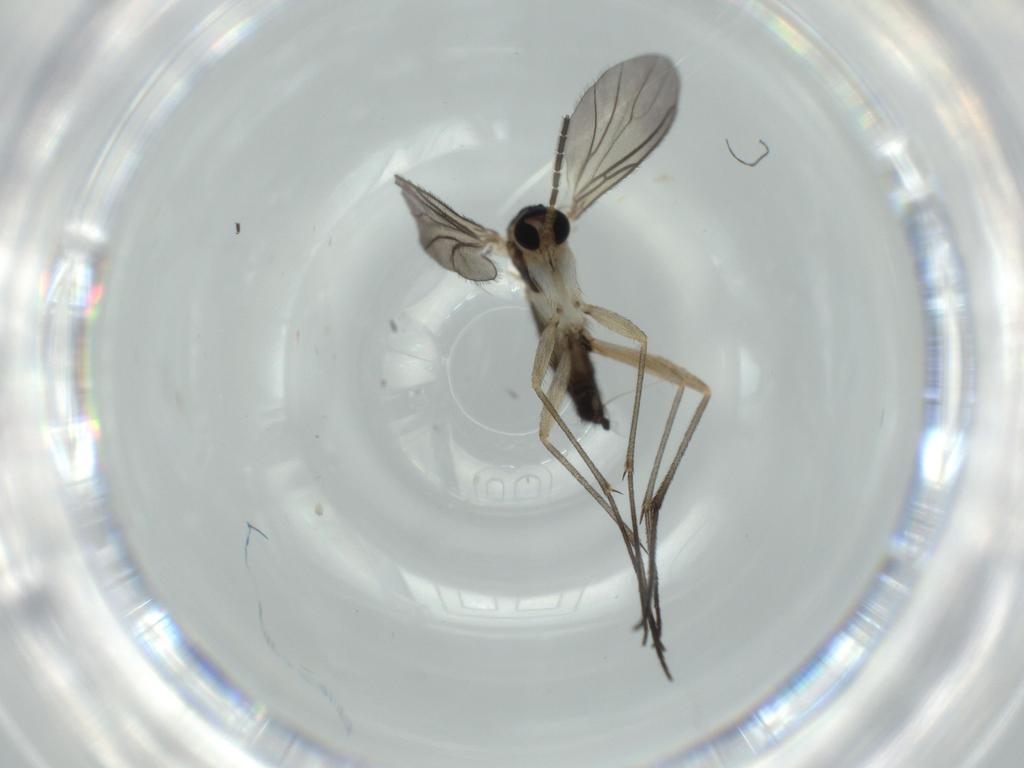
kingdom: Animalia
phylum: Arthropoda
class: Insecta
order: Diptera
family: Sciaridae
